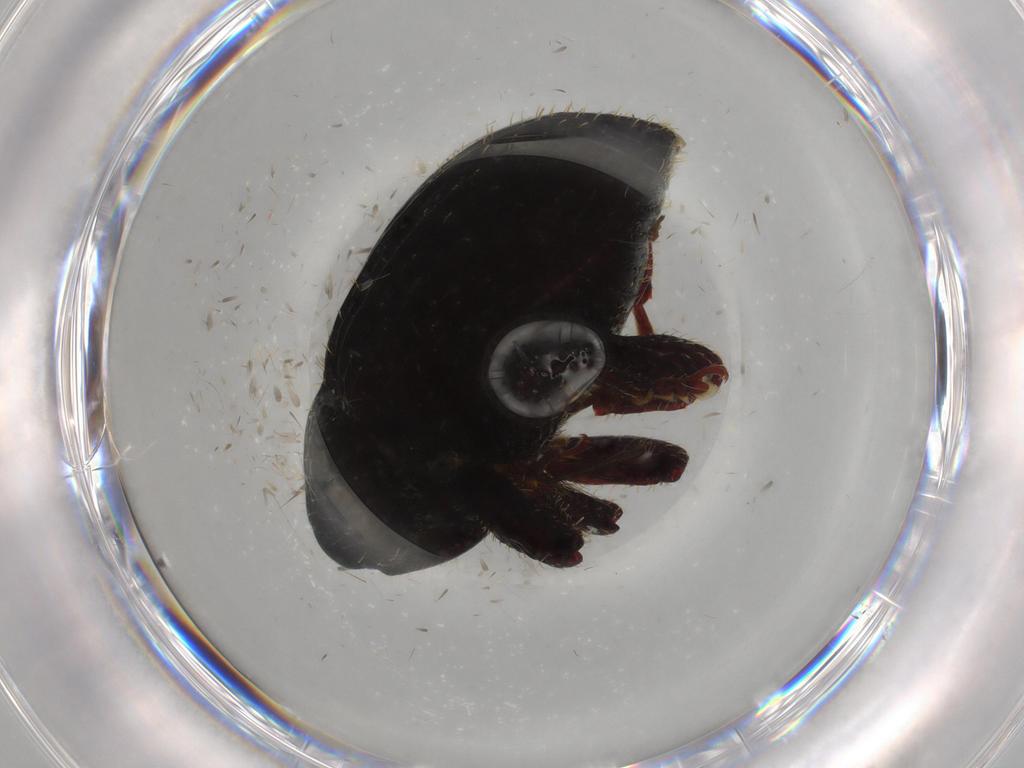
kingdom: Animalia
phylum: Arthropoda
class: Insecta
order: Coleoptera
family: Curculionidae
